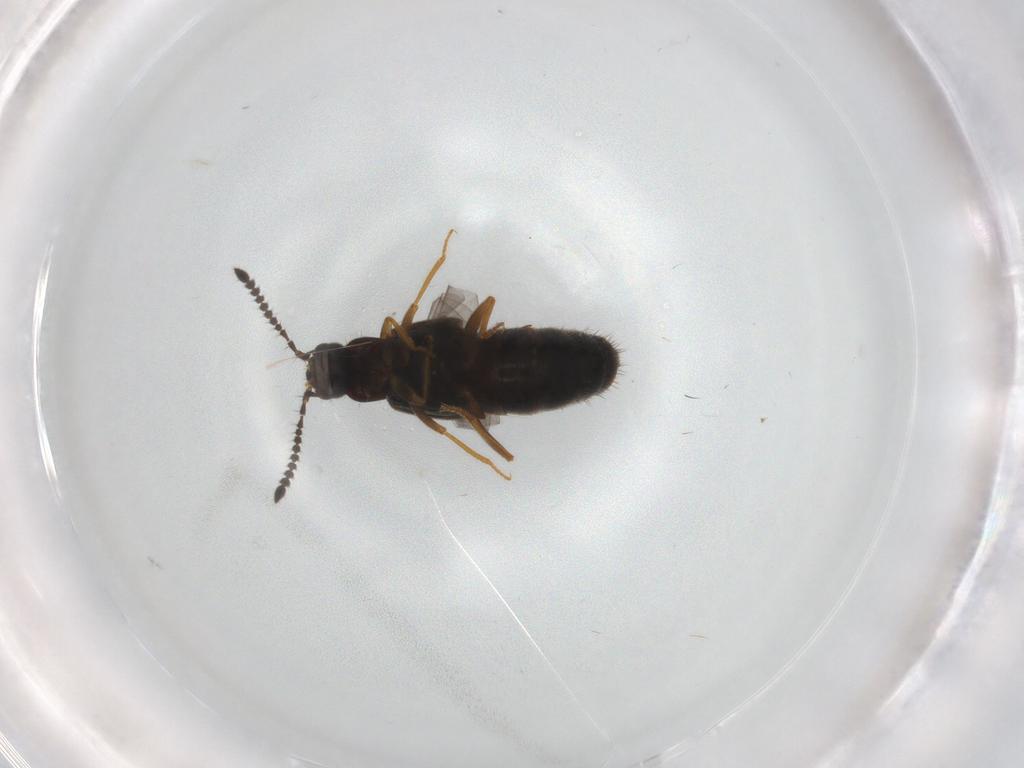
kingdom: Animalia
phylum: Arthropoda
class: Insecta
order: Coleoptera
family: Staphylinidae
